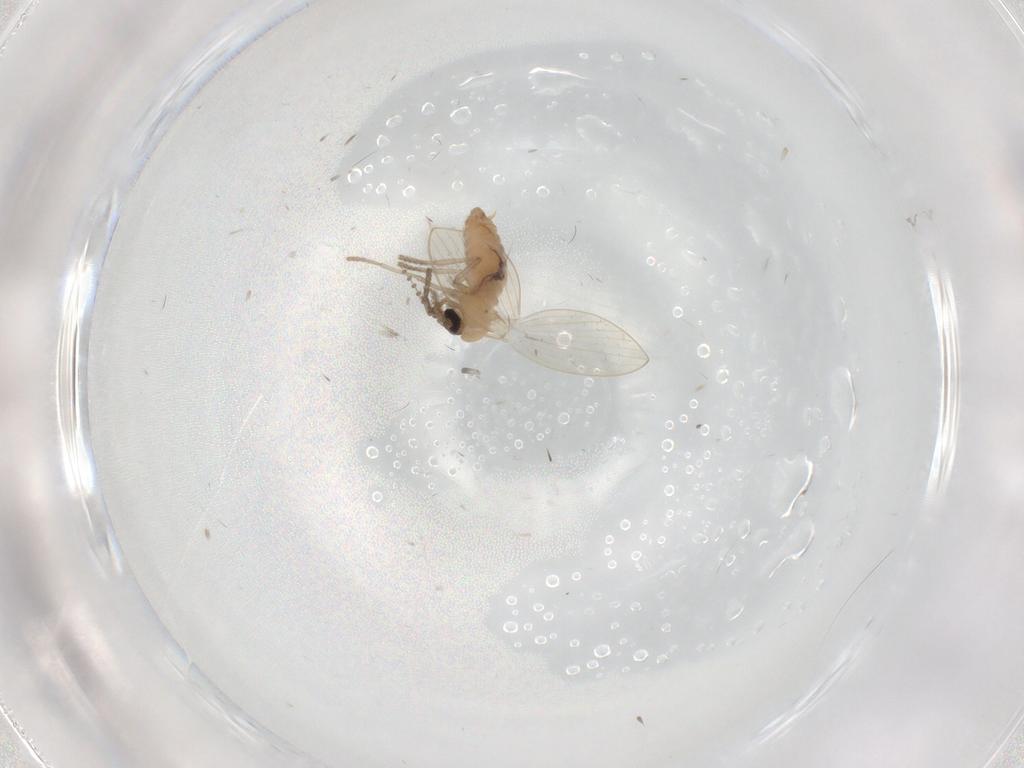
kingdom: Animalia
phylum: Arthropoda
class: Insecta
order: Diptera
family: Psychodidae
